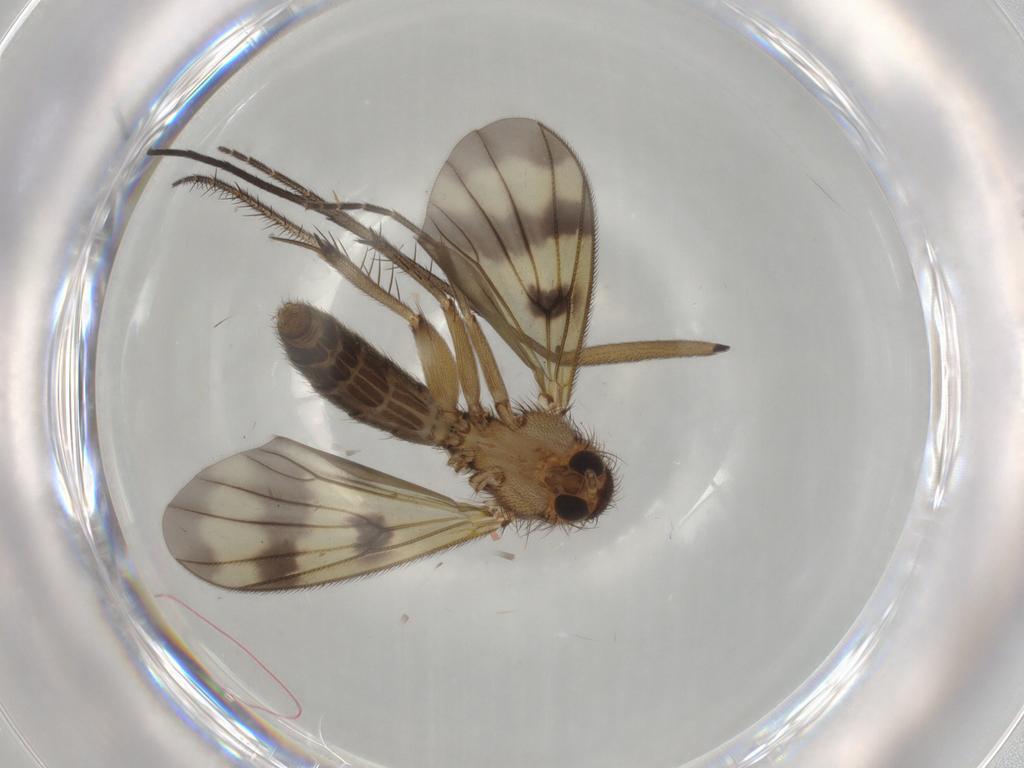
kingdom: Animalia
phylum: Arthropoda
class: Insecta
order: Diptera
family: Mycetophilidae
